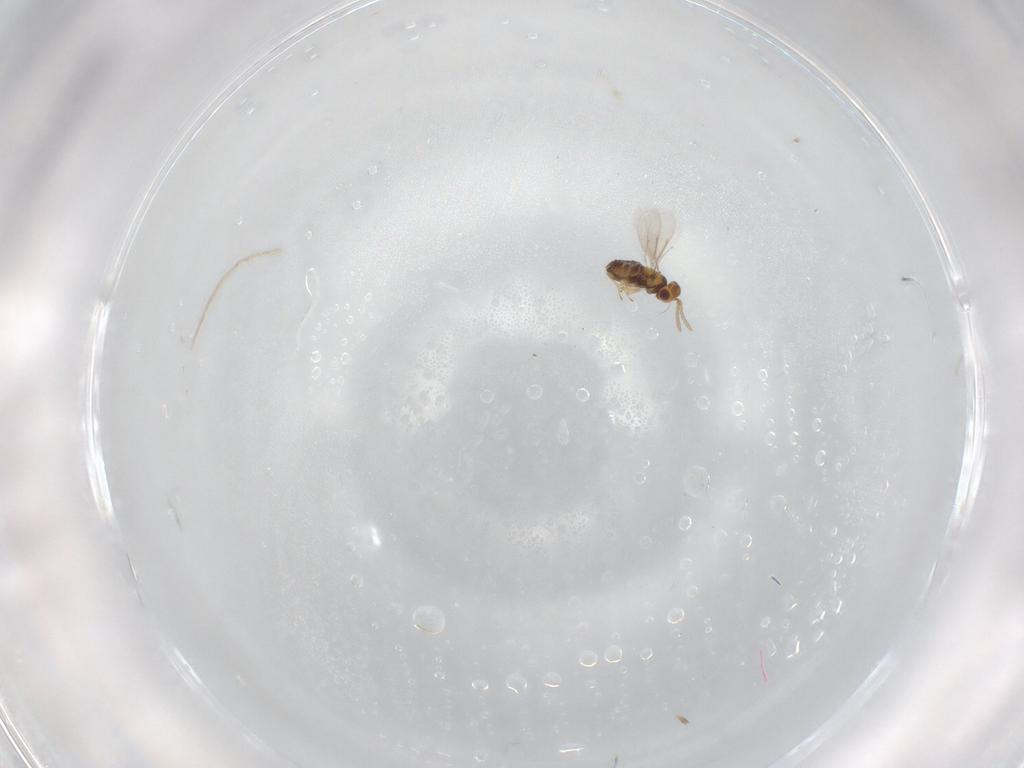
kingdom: Animalia
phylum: Arthropoda
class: Insecta
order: Hymenoptera
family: Aphelinidae
